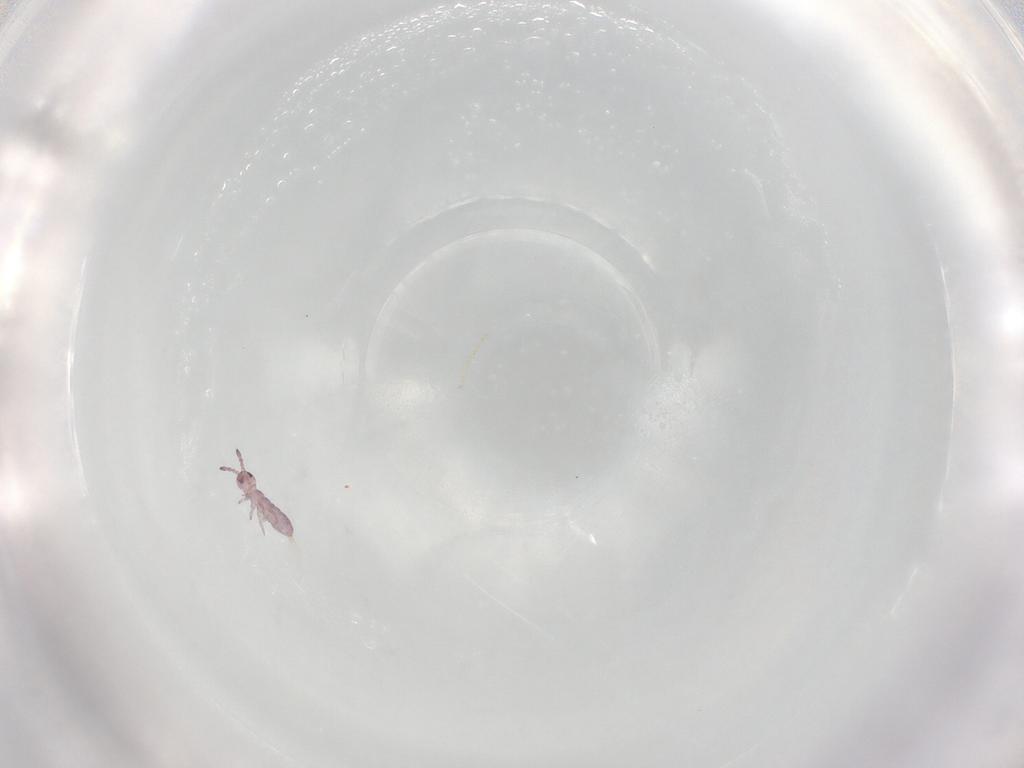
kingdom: Animalia
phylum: Arthropoda
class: Collembola
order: Entomobryomorpha
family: Isotomidae
